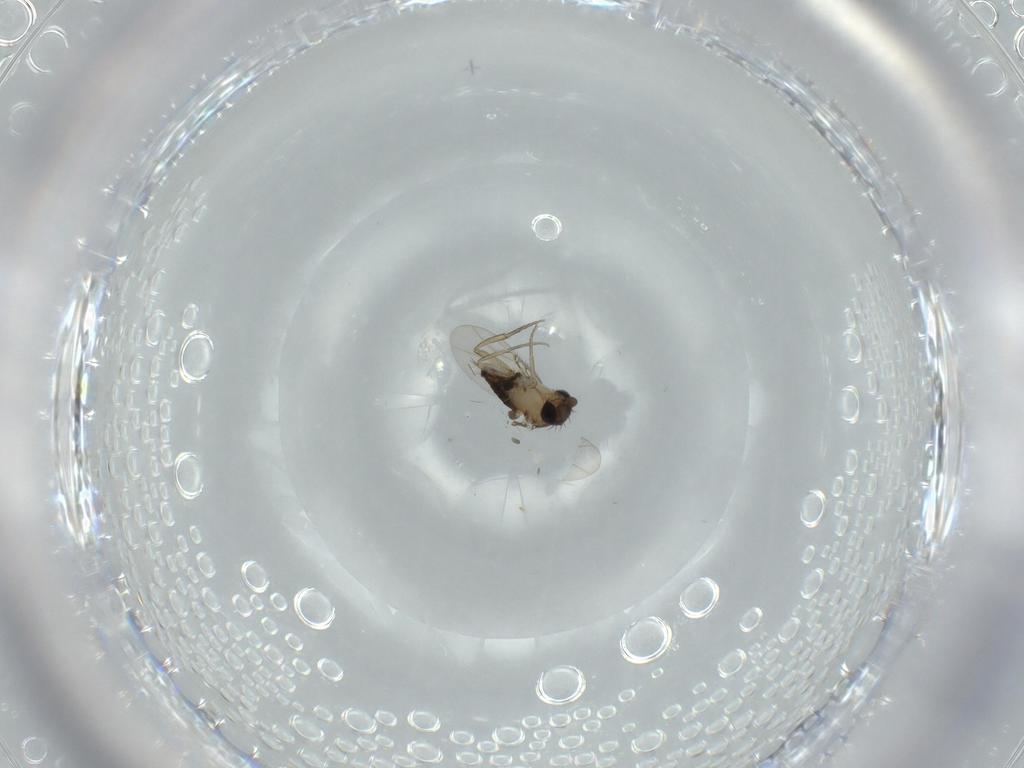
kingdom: Animalia
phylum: Arthropoda
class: Insecta
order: Diptera
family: Phoridae
